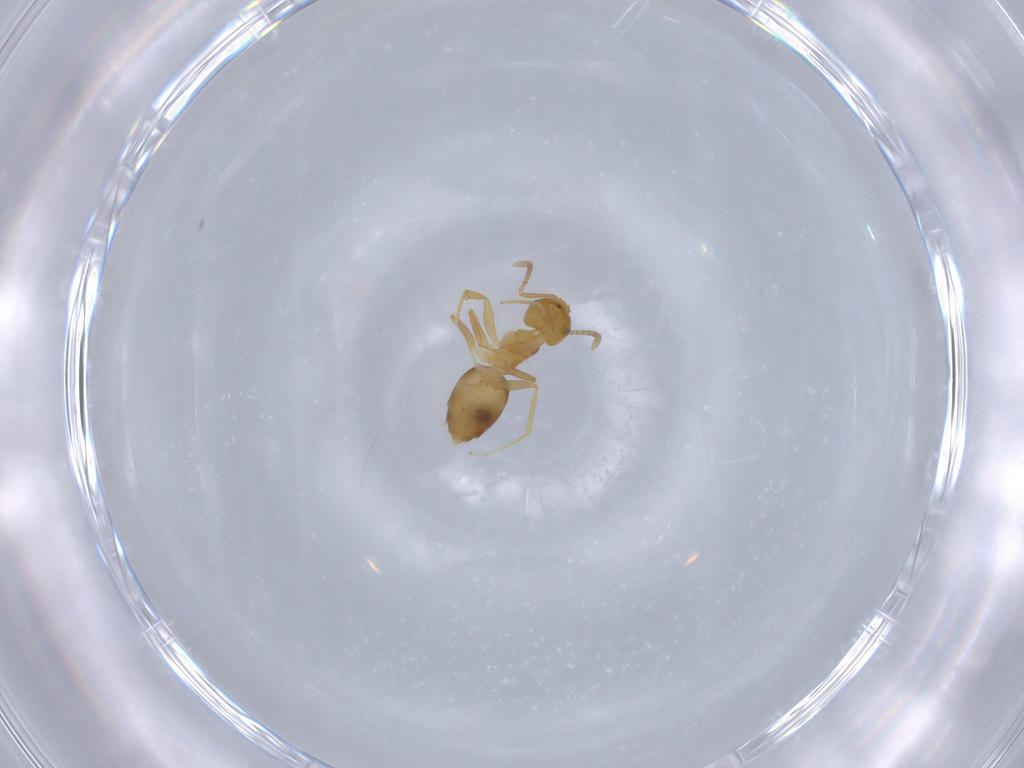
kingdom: Animalia
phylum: Arthropoda
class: Insecta
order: Hymenoptera
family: Formicidae
